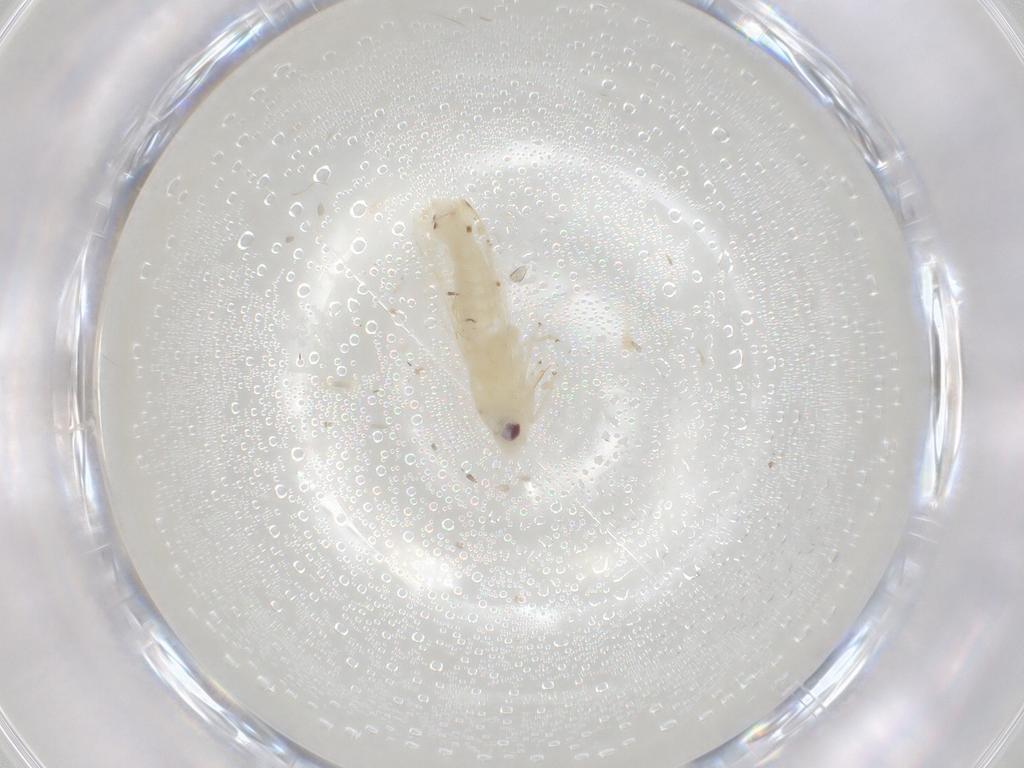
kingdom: Animalia
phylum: Arthropoda
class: Insecta
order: Hemiptera
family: Cicadellidae
